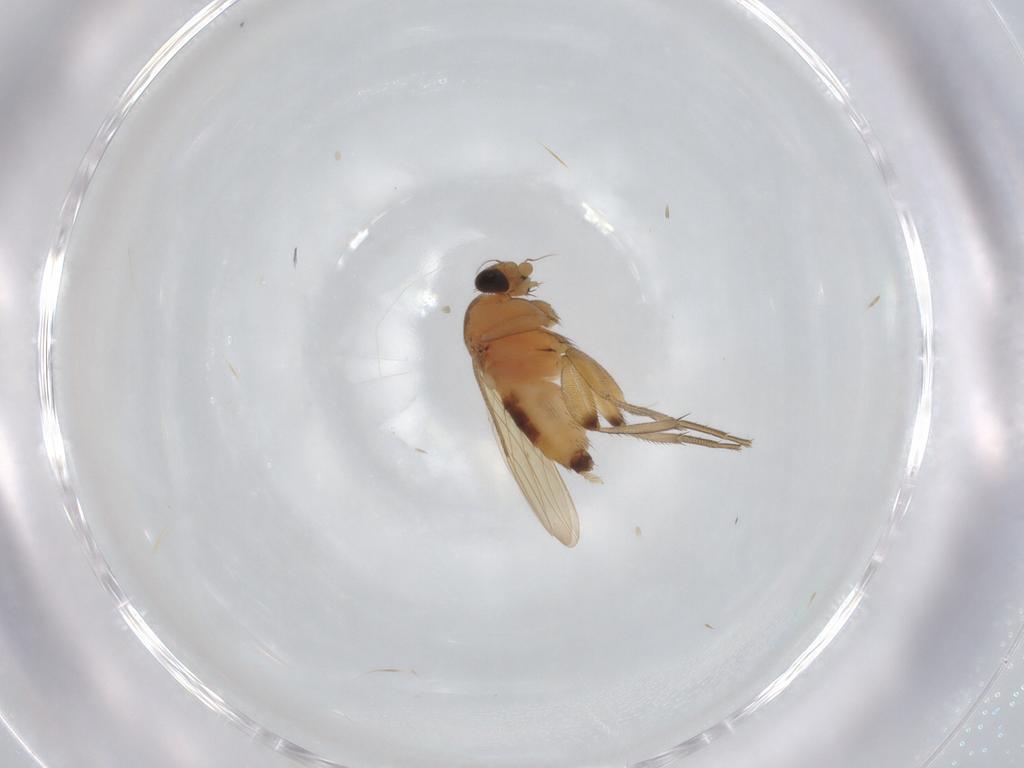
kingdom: Animalia
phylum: Arthropoda
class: Insecta
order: Diptera
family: Phoridae
